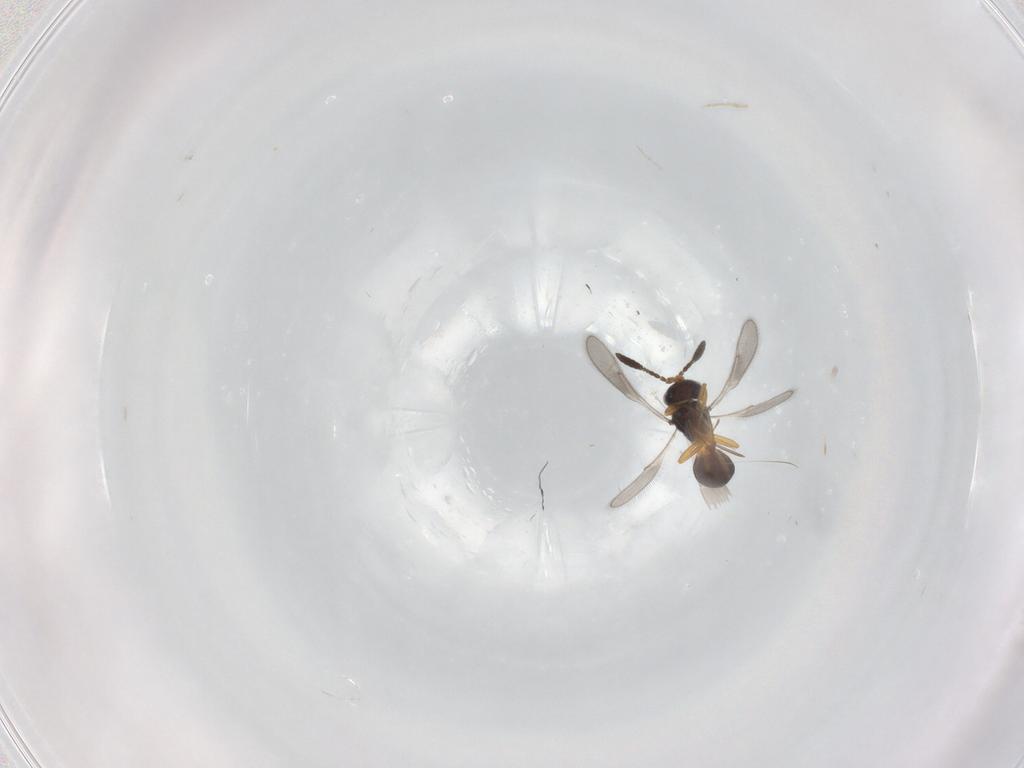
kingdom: Animalia
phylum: Arthropoda
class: Insecta
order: Hymenoptera
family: Scelionidae
